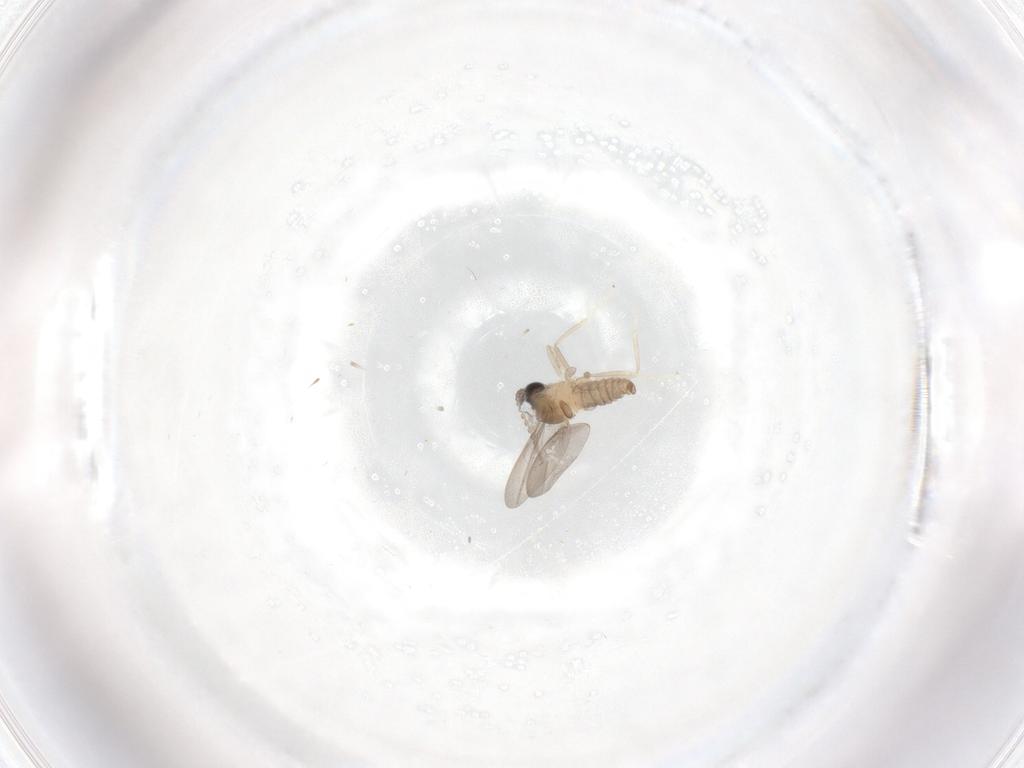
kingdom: Animalia
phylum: Arthropoda
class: Insecta
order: Diptera
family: Cecidomyiidae
